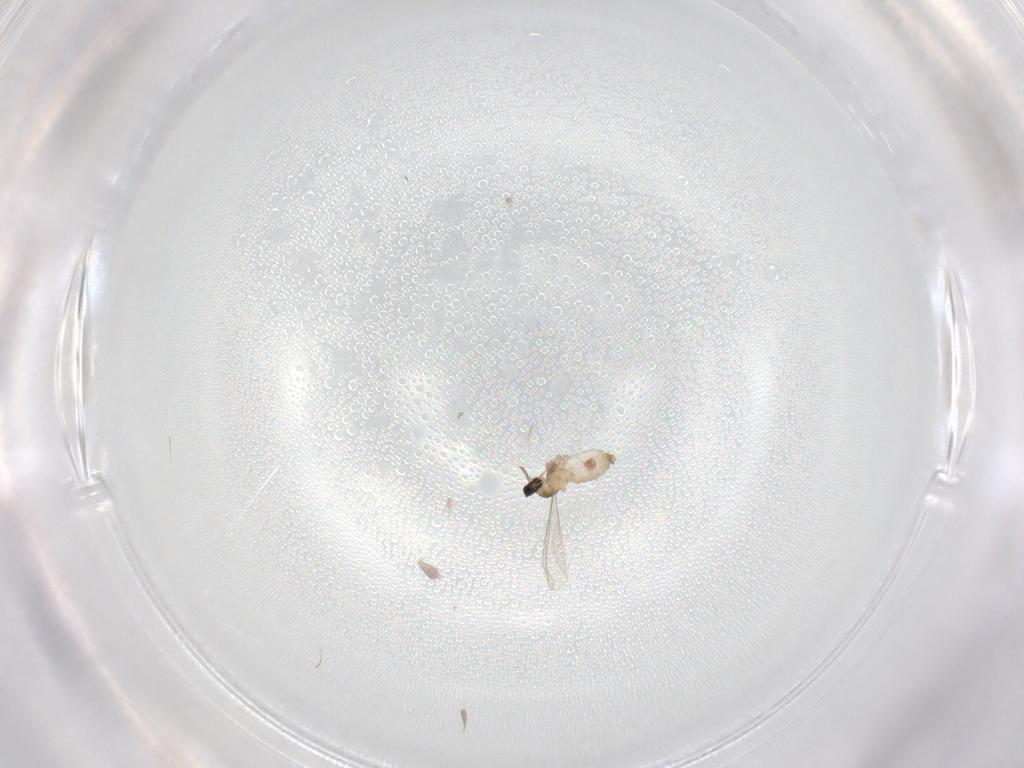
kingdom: Animalia
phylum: Arthropoda
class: Insecta
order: Diptera
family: Cecidomyiidae
